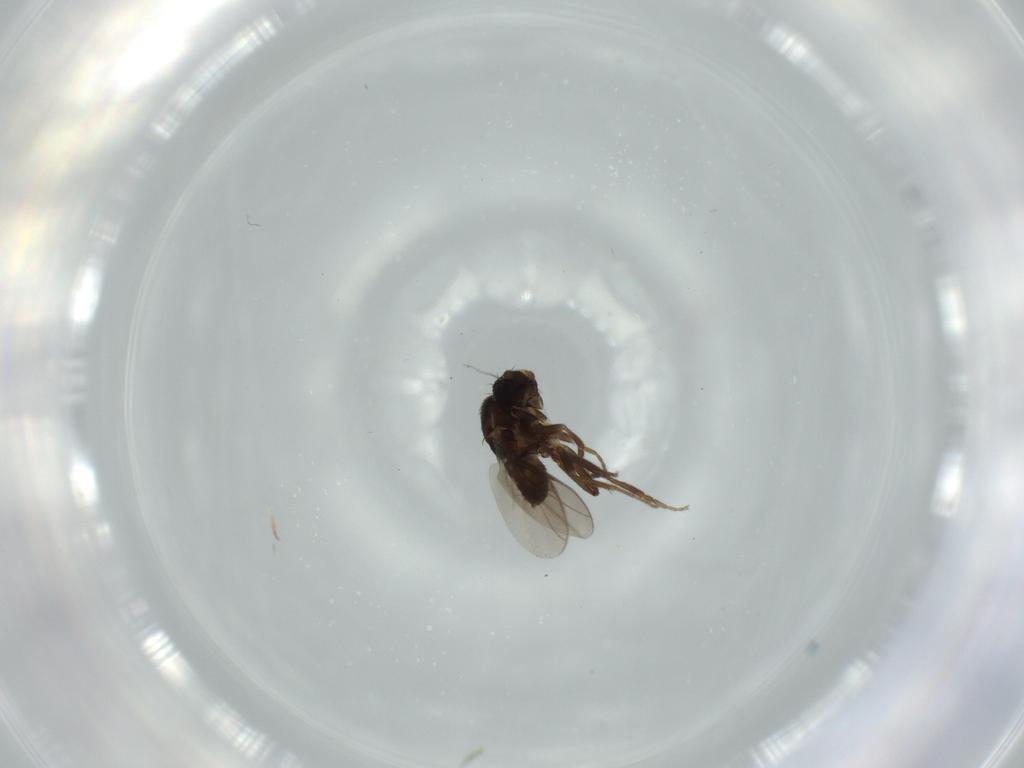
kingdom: Animalia
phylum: Arthropoda
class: Insecta
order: Diptera
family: Sphaeroceridae
